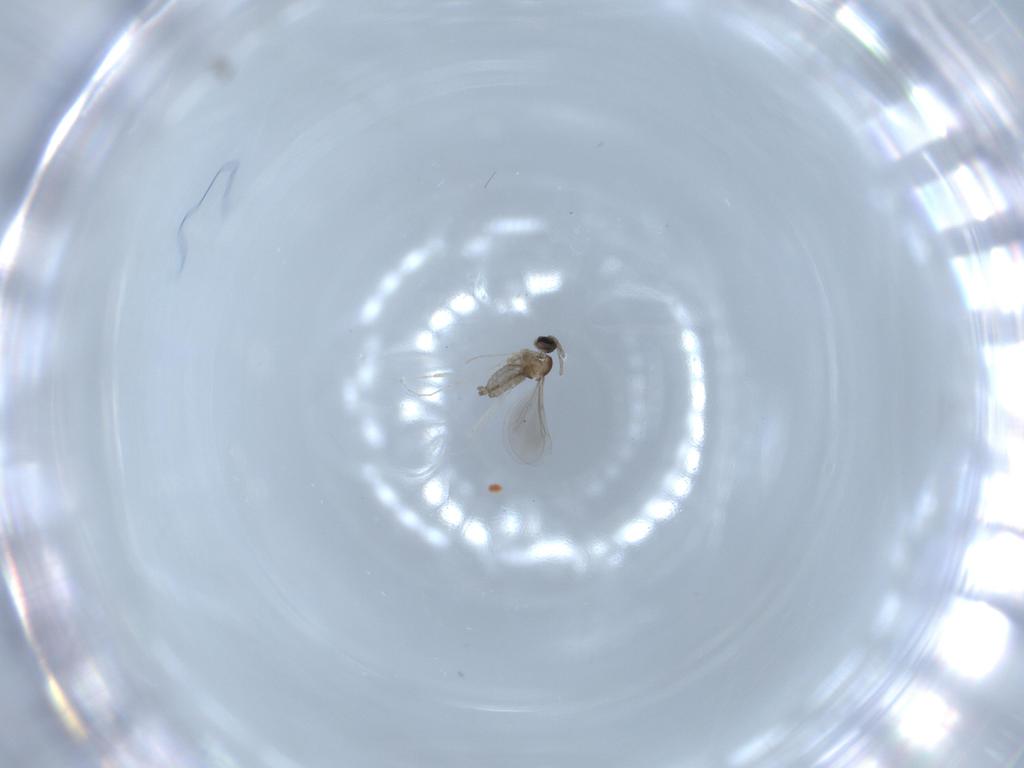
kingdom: Animalia
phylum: Arthropoda
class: Insecta
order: Diptera
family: Cecidomyiidae
